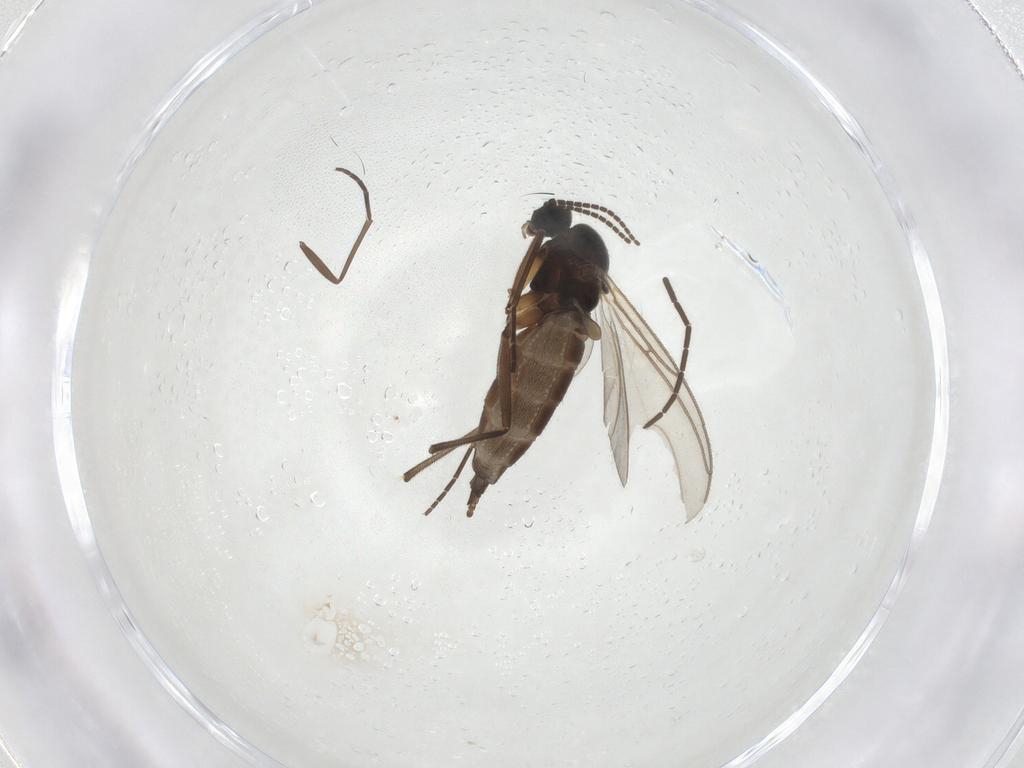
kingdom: Animalia
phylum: Arthropoda
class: Insecta
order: Diptera
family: Sciaridae
